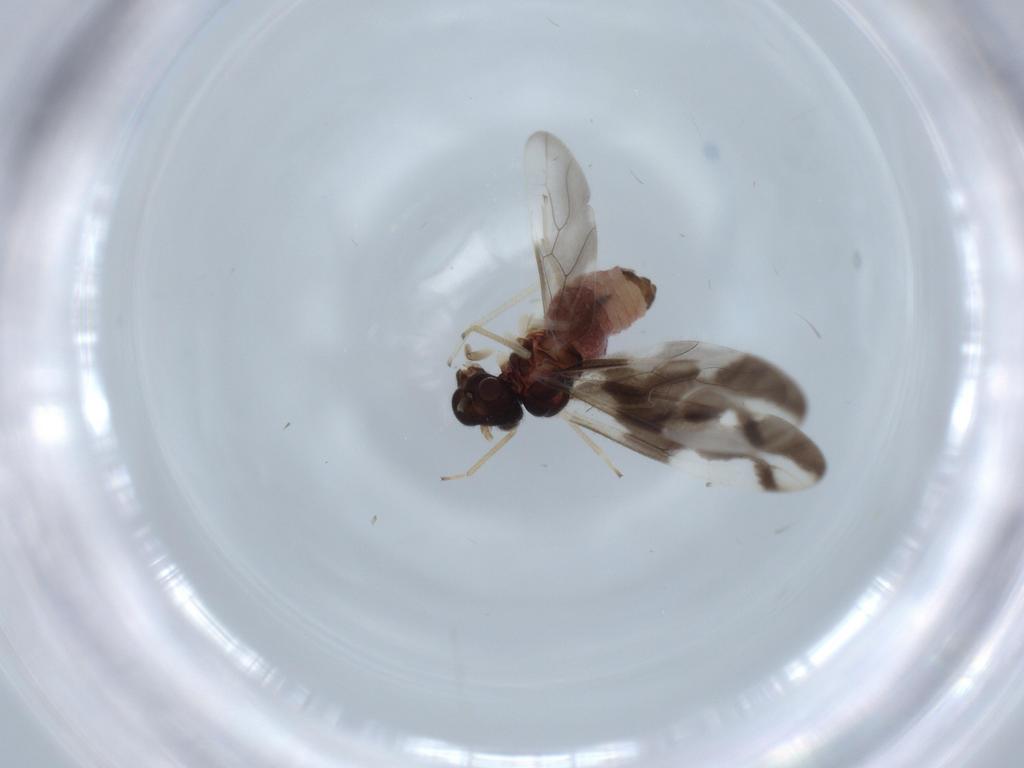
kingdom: Animalia
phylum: Arthropoda
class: Insecta
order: Psocodea
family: Caeciliusidae
